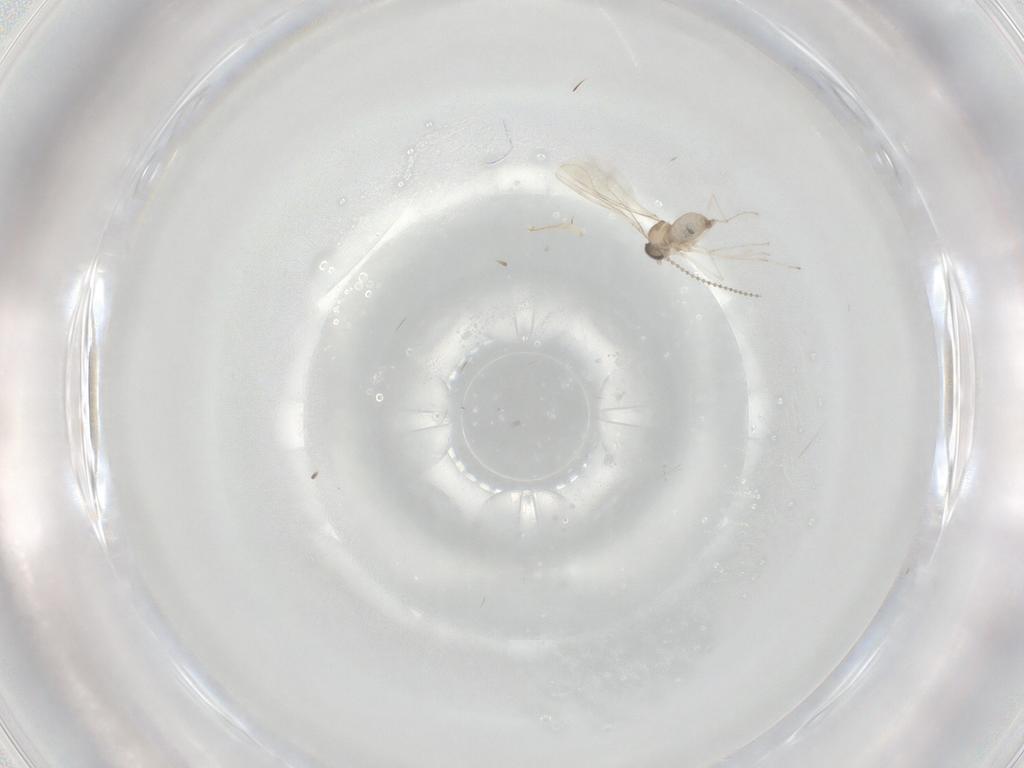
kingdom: Animalia
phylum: Arthropoda
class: Insecta
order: Diptera
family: Cecidomyiidae
